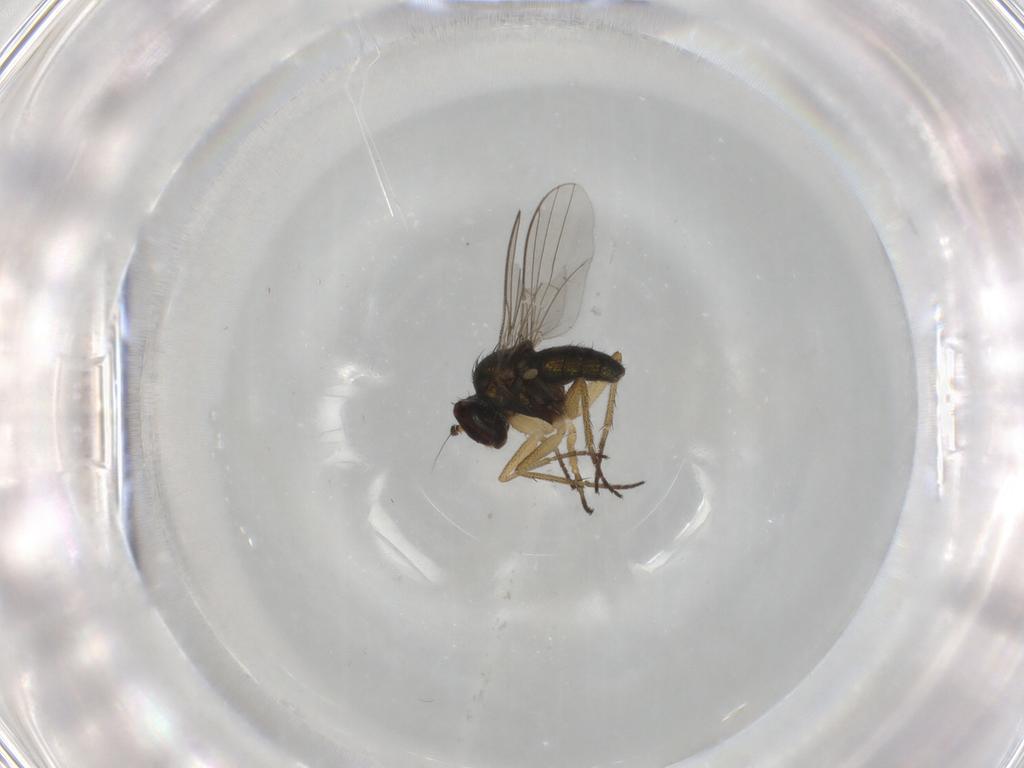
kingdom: Animalia
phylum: Arthropoda
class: Insecta
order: Diptera
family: Dolichopodidae
